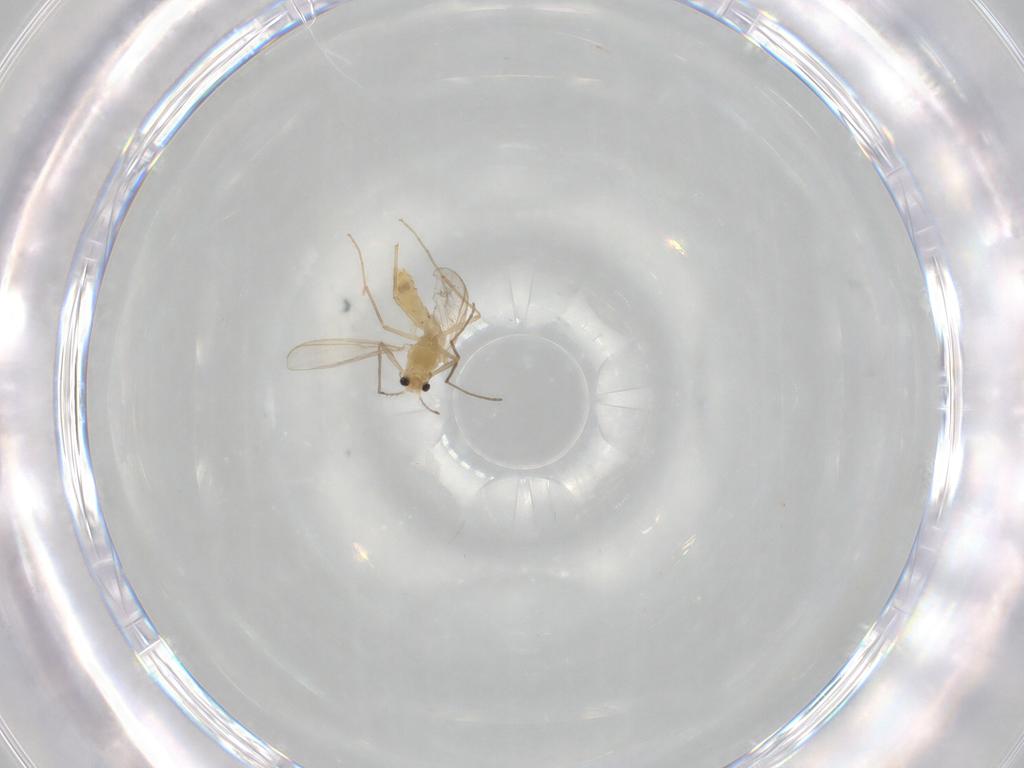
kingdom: Animalia
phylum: Arthropoda
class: Insecta
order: Diptera
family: Chironomidae
